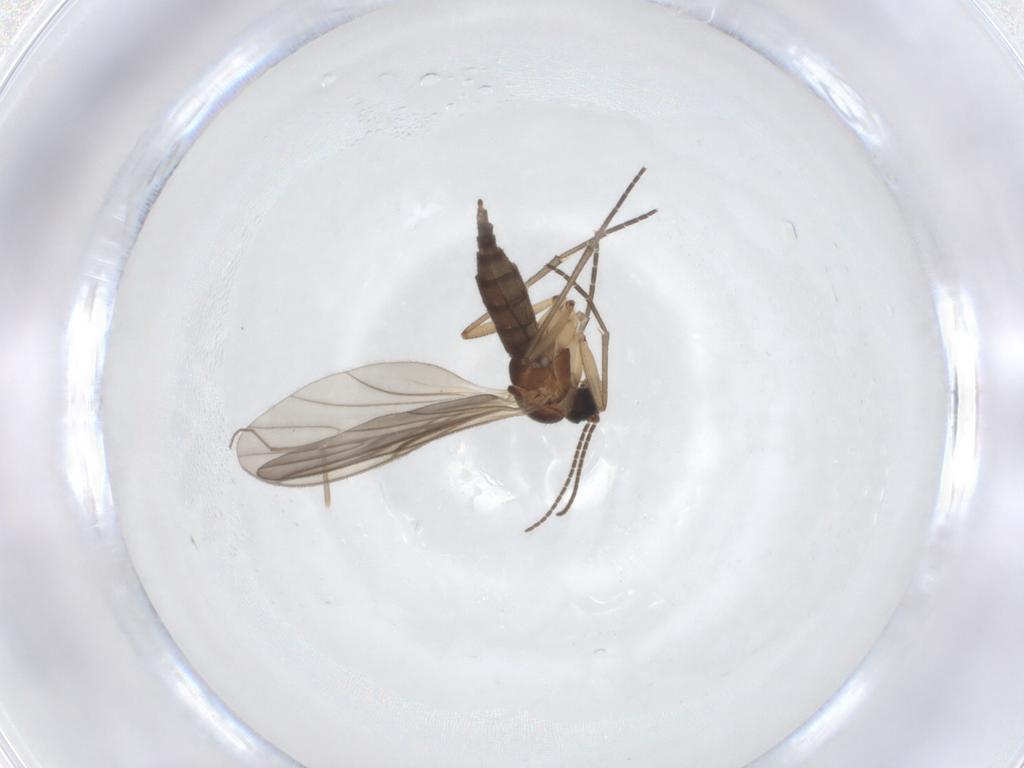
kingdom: Animalia
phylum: Arthropoda
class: Insecta
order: Diptera
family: Sciaridae
